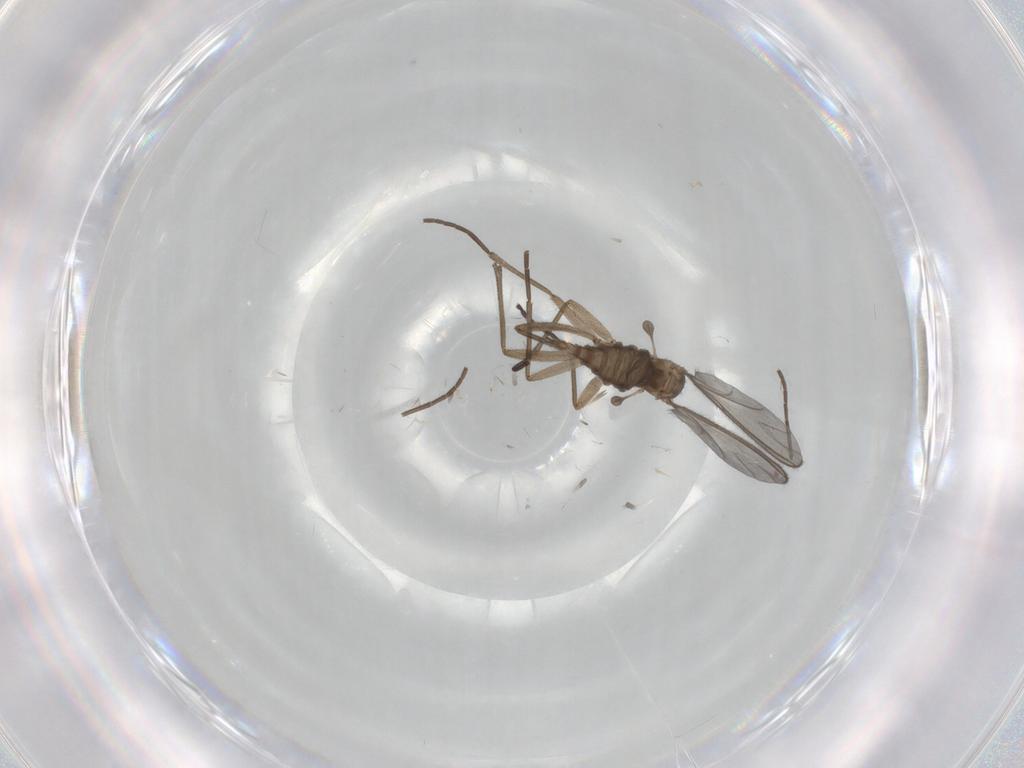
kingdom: Animalia
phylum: Arthropoda
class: Insecta
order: Diptera
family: Sciaridae
